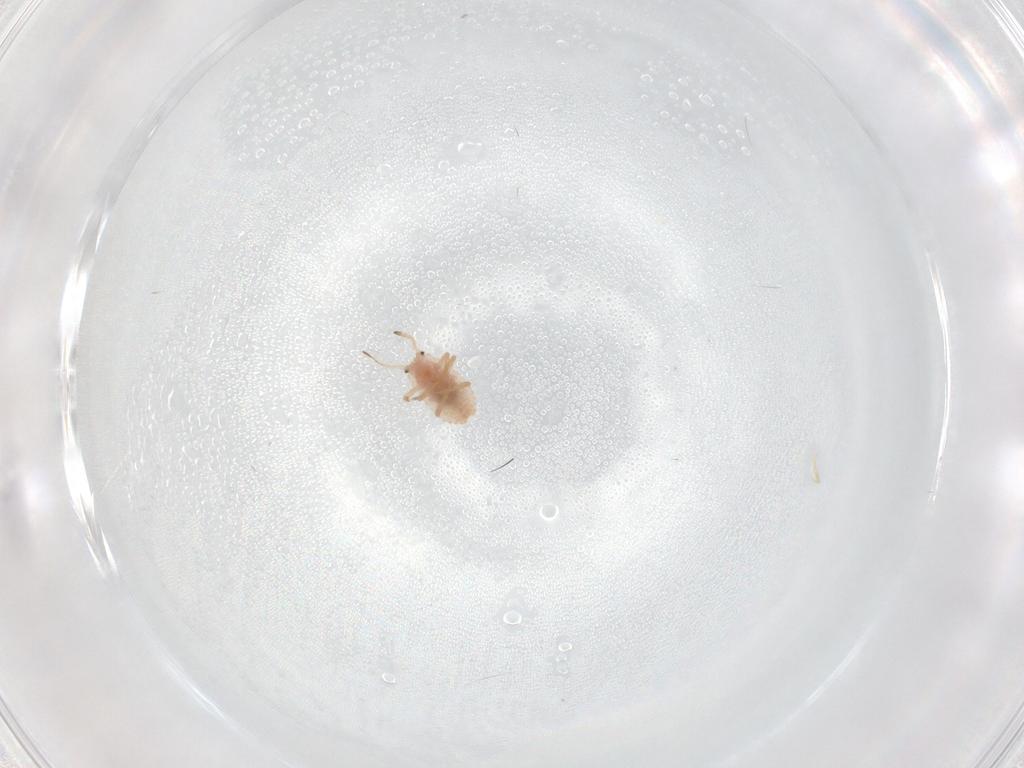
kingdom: Animalia
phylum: Arthropoda
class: Insecta
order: Hemiptera
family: Coccoidea_incertae_sedis
